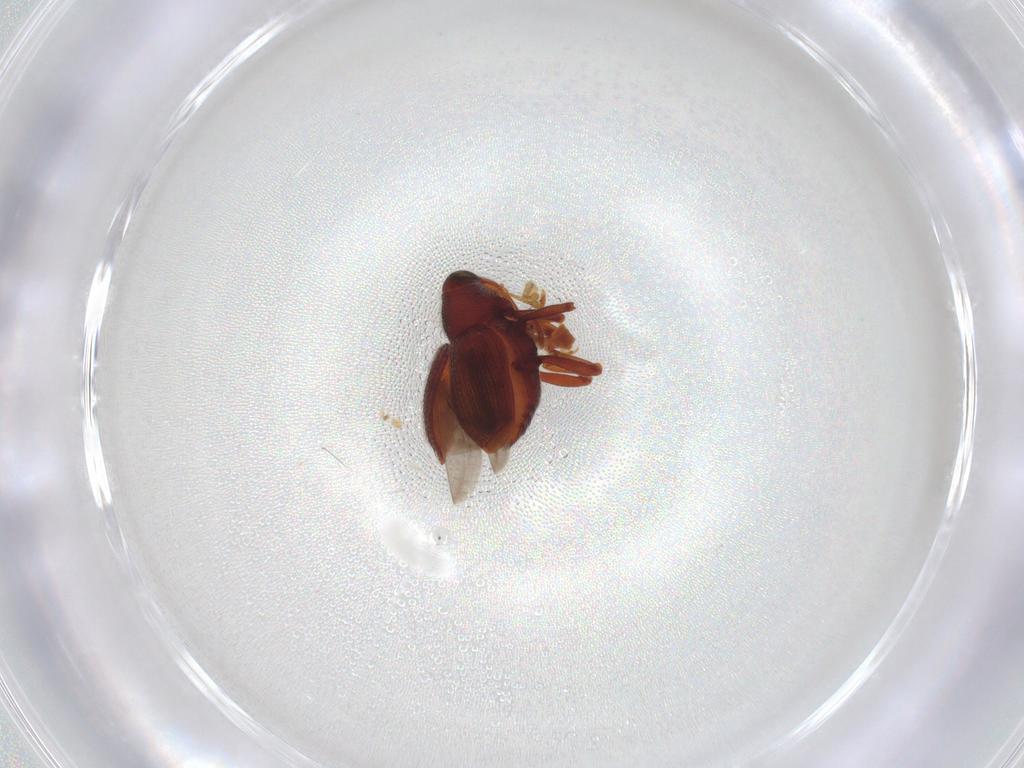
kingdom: Animalia
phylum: Arthropoda
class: Insecta
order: Coleoptera
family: Curculionidae
